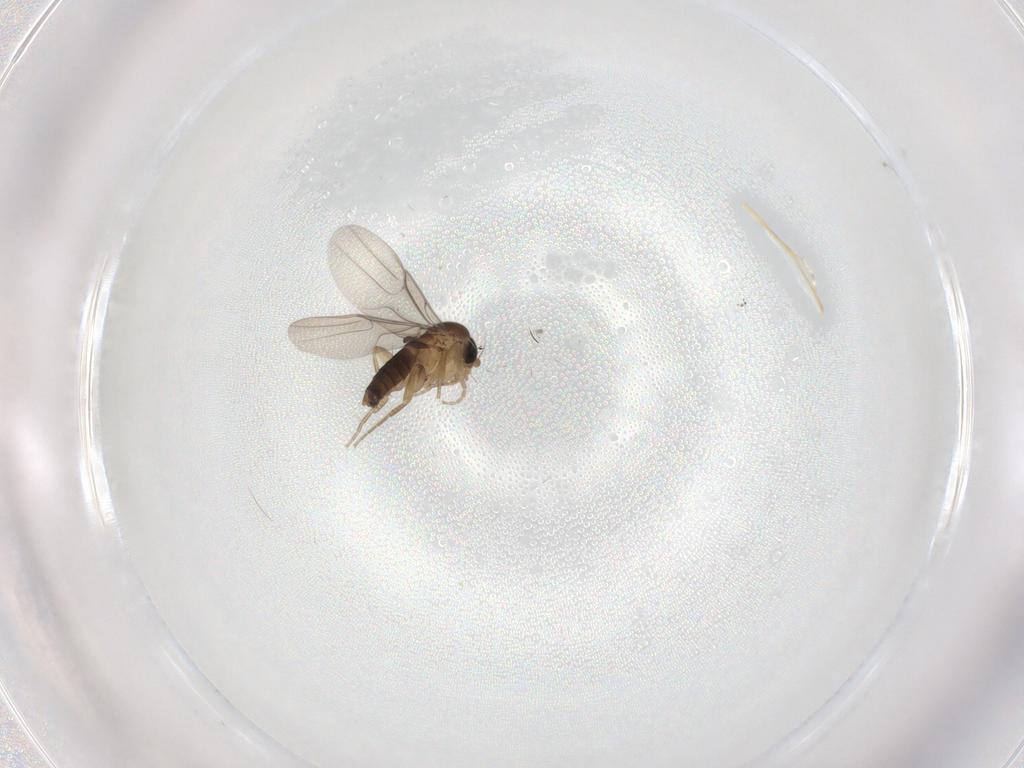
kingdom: Animalia
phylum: Arthropoda
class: Insecta
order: Diptera
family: Phoridae
